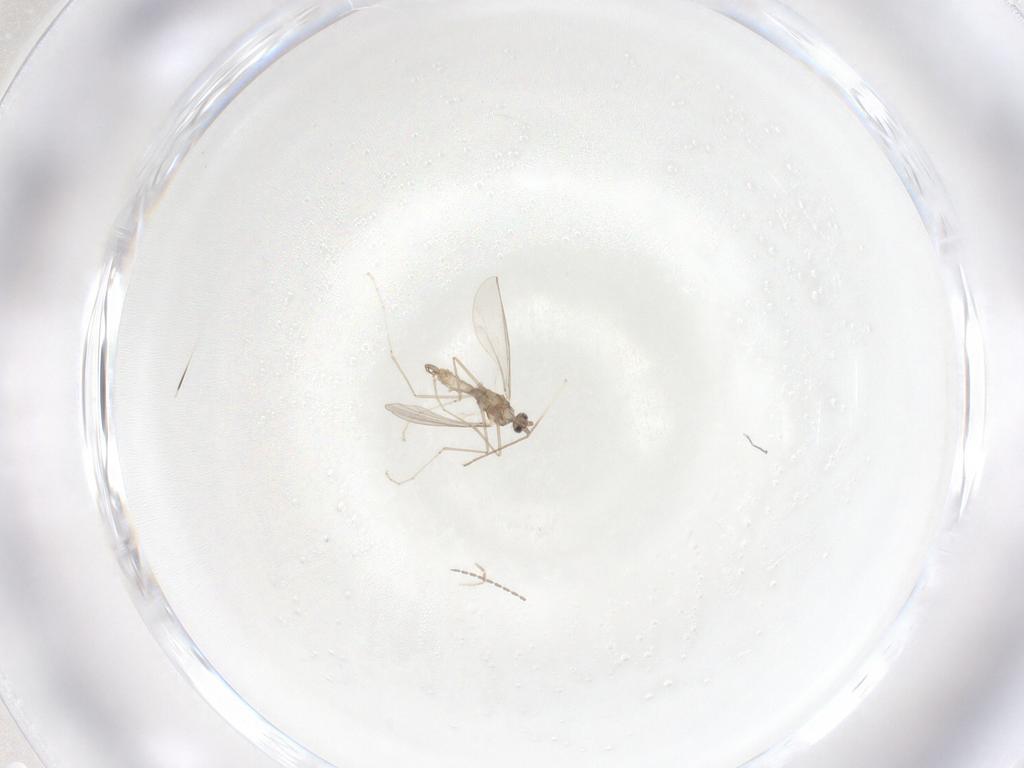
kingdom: Animalia
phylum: Arthropoda
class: Insecta
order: Diptera
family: Cecidomyiidae
